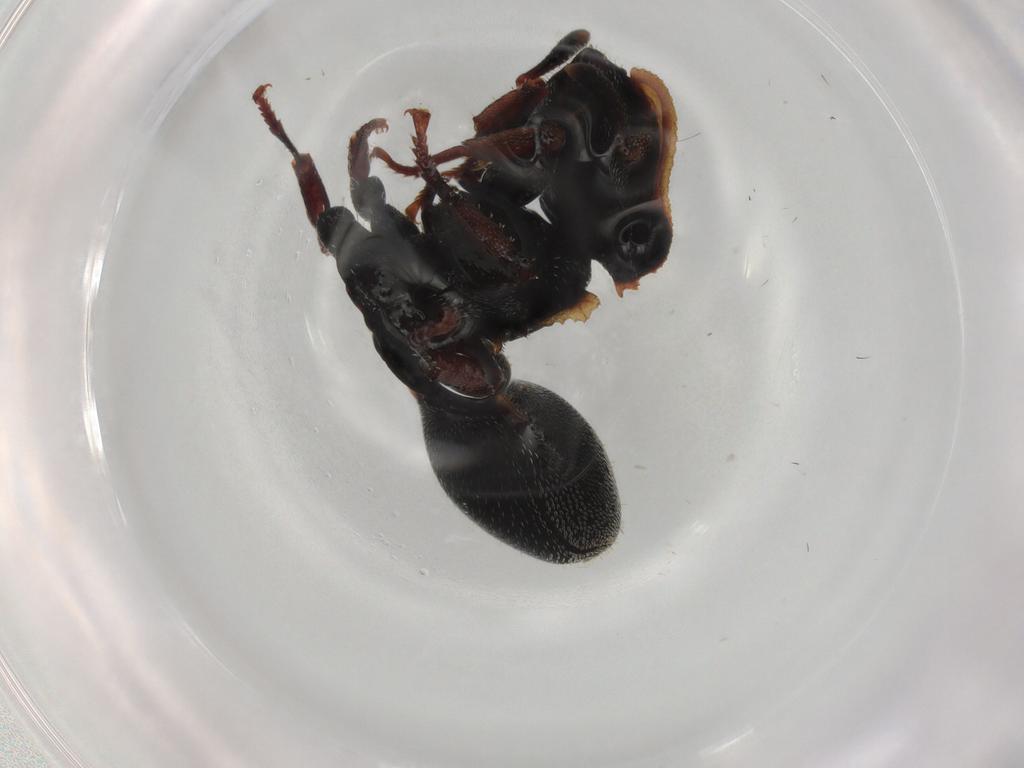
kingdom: Animalia
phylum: Arthropoda
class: Insecta
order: Hymenoptera
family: Formicidae
